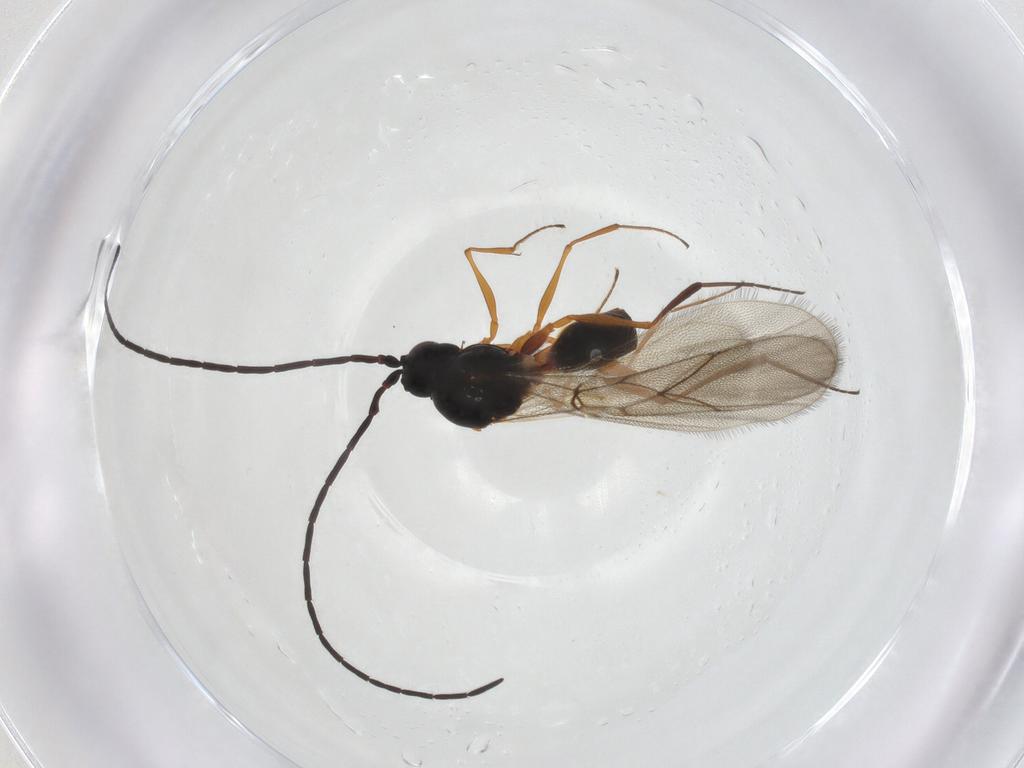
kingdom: Animalia
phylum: Arthropoda
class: Insecta
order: Hymenoptera
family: Figitidae
